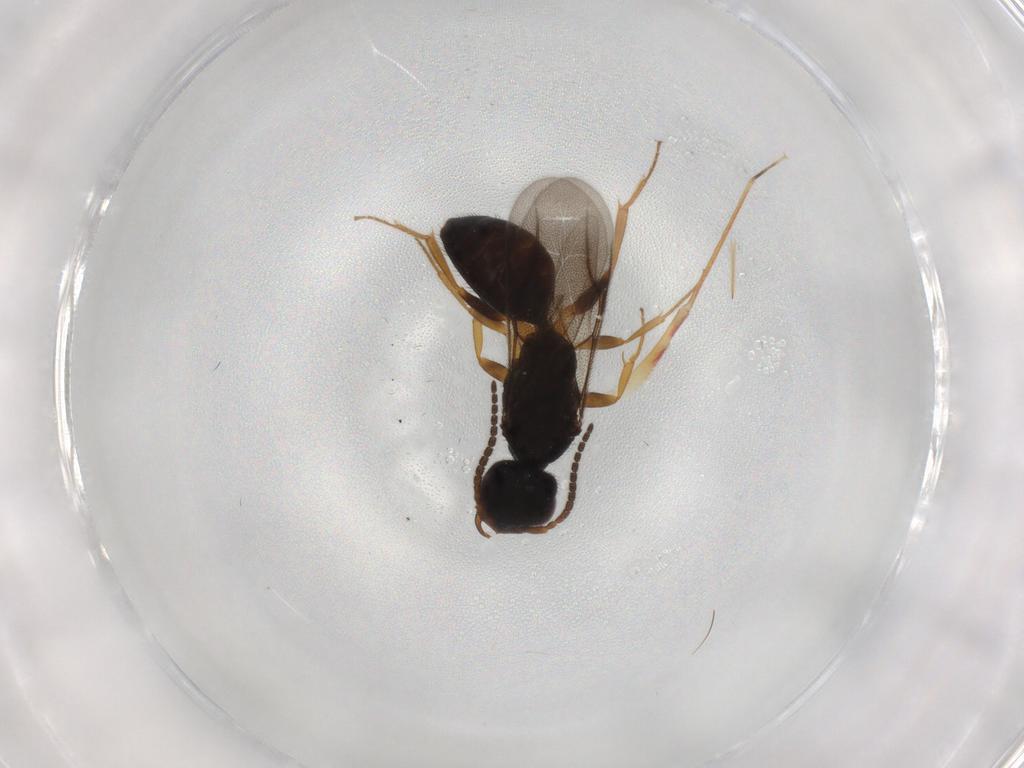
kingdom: Animalia
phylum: Arthropoda
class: Insecta
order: Hymenoptera
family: Bethylidae
